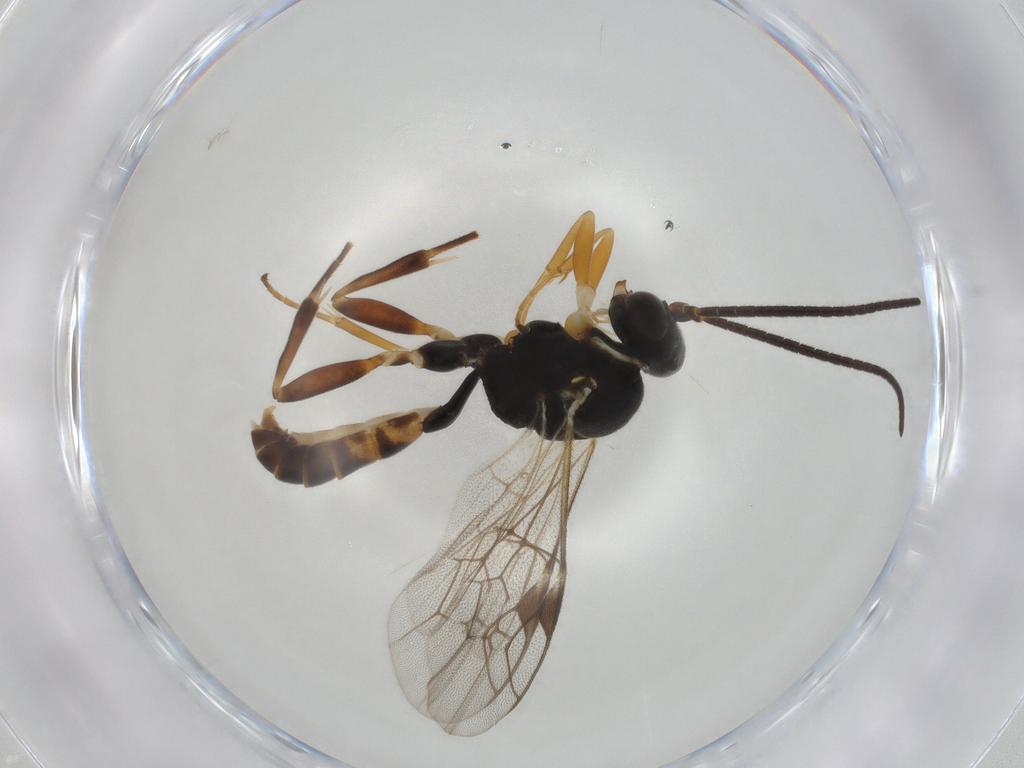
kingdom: Animalia
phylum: Arthropoda
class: Insecta
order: Hymenoptera
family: Ichneumonidae
